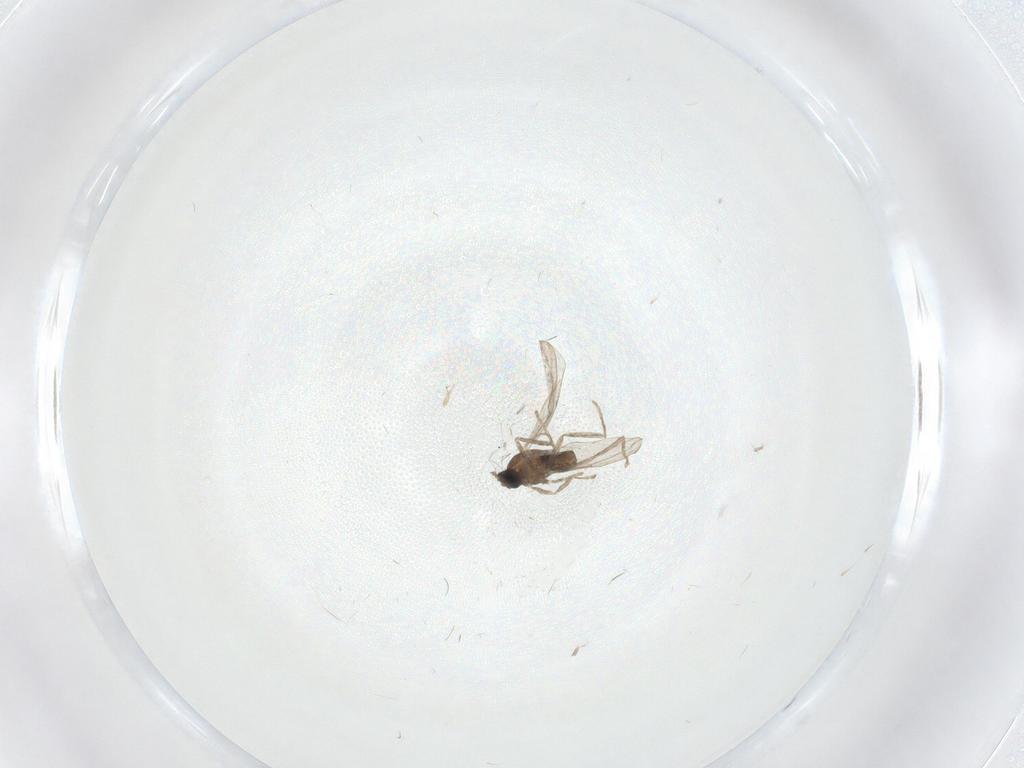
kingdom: Animalia
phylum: Arthropoda
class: Insecta
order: Diptera
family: Cecidomyiidae
